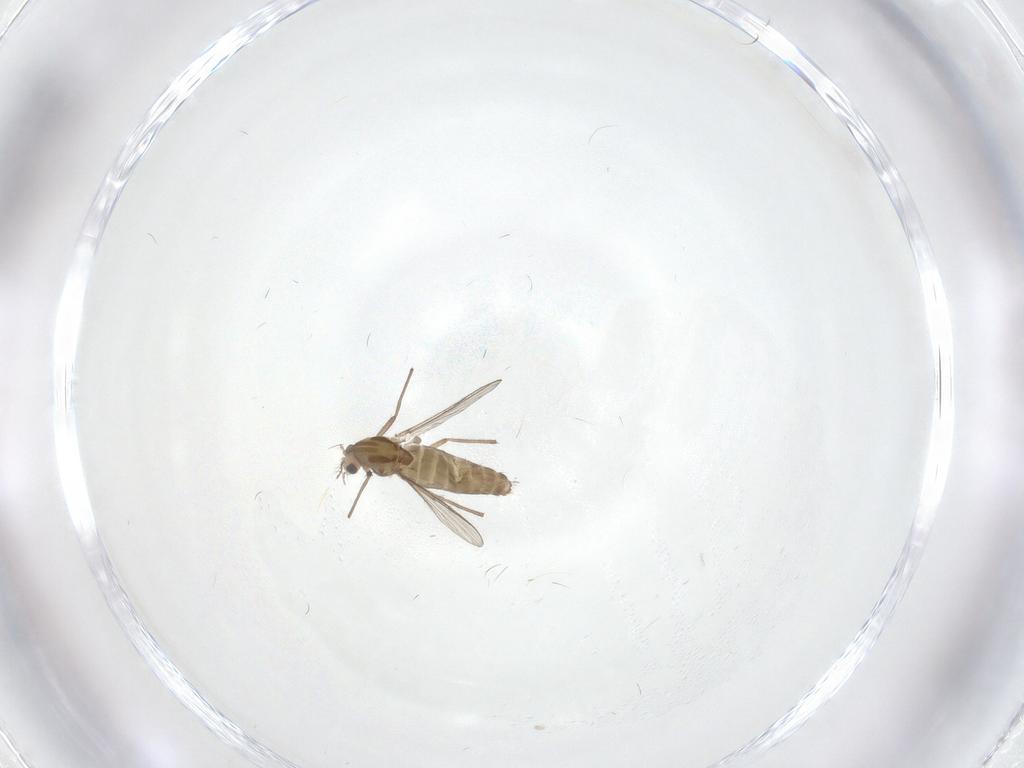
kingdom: Animalia
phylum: Arthropoda
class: Insecta
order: Diptera
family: Chironomidae
